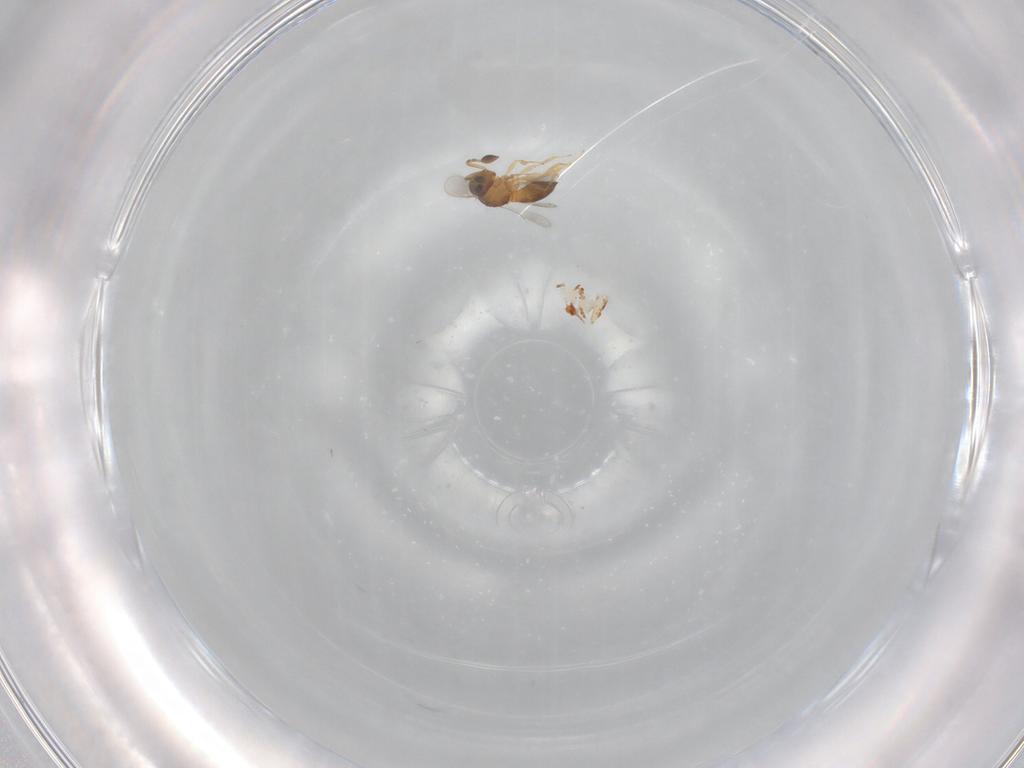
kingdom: Animalia
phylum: Arthropoda
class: Insecta
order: Hymenoptera
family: Scelionidae
